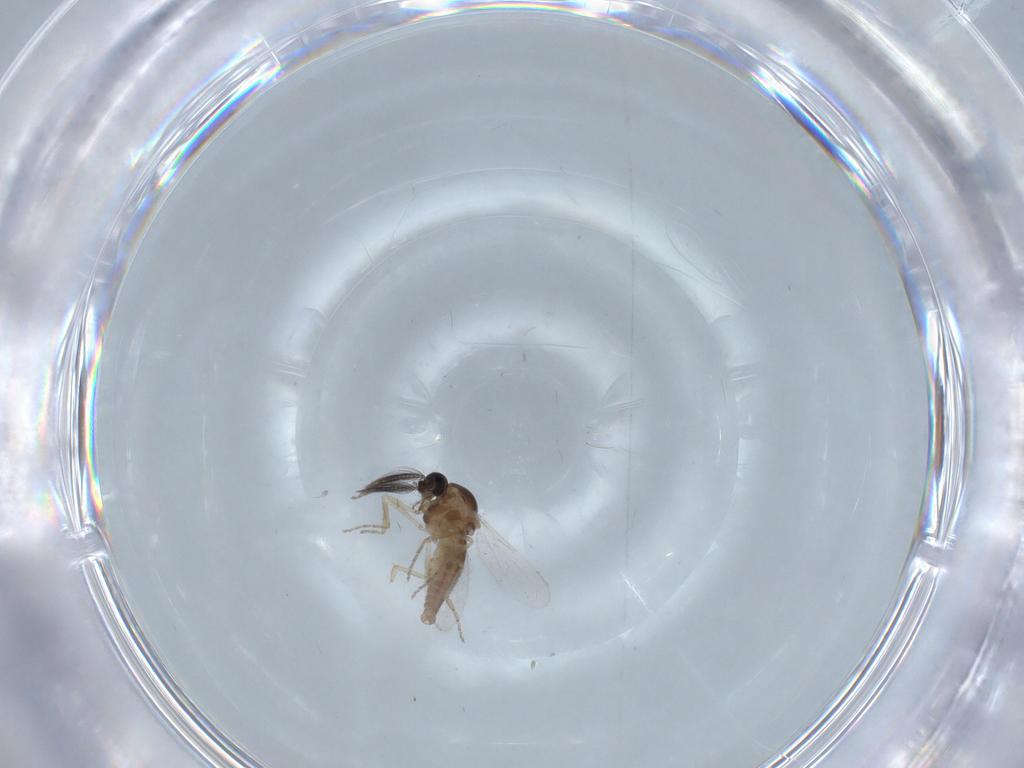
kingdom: Animalia
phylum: Arthropoda
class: Insecta
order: Diptera
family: Ceratopogonidae
